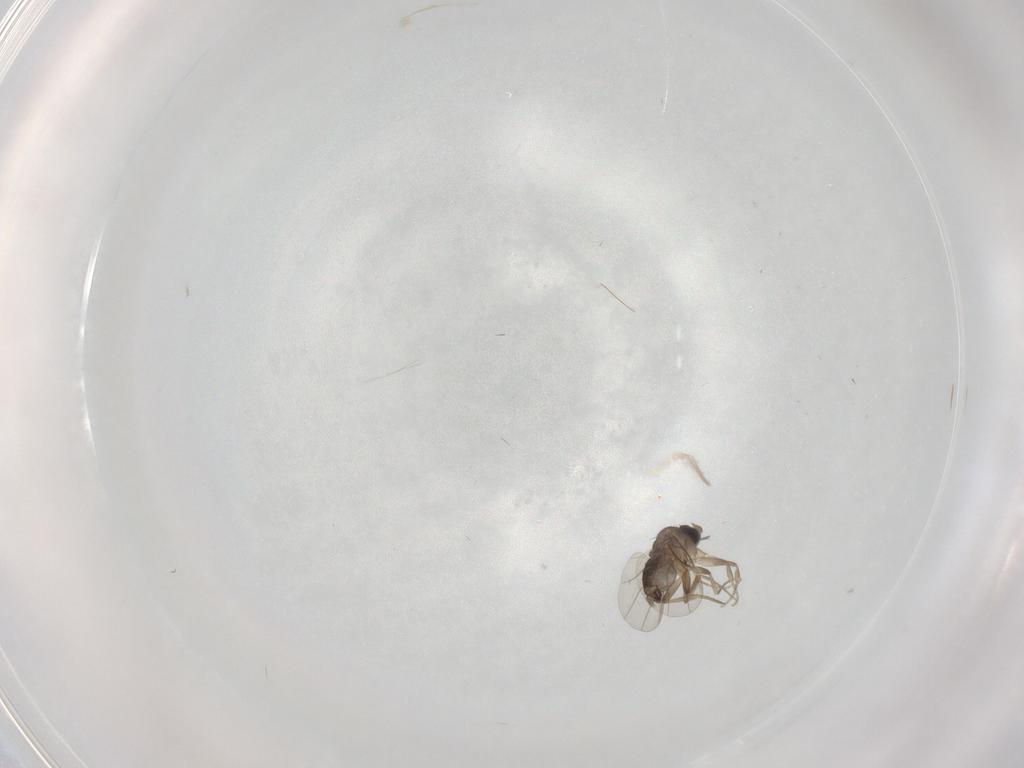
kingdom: Animalia
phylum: Arthropoda
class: Insecta
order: Diptera
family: Chironomidae
